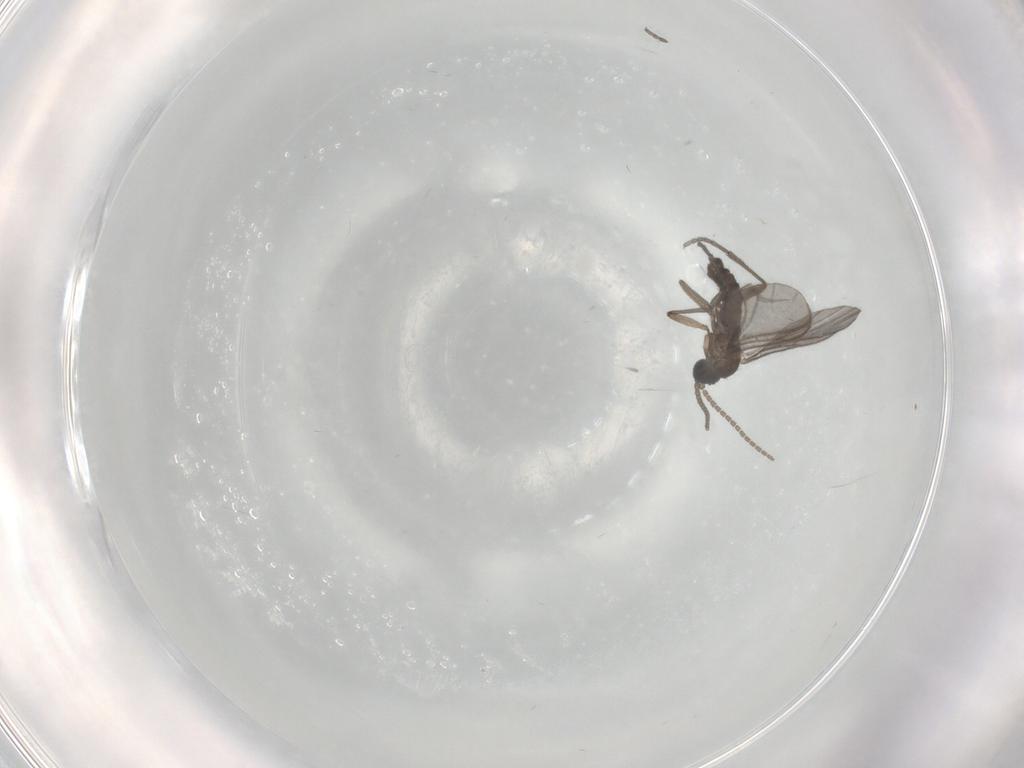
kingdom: Animalia
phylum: Arthropoda
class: Insecta
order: Diptera
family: Sciaridae
